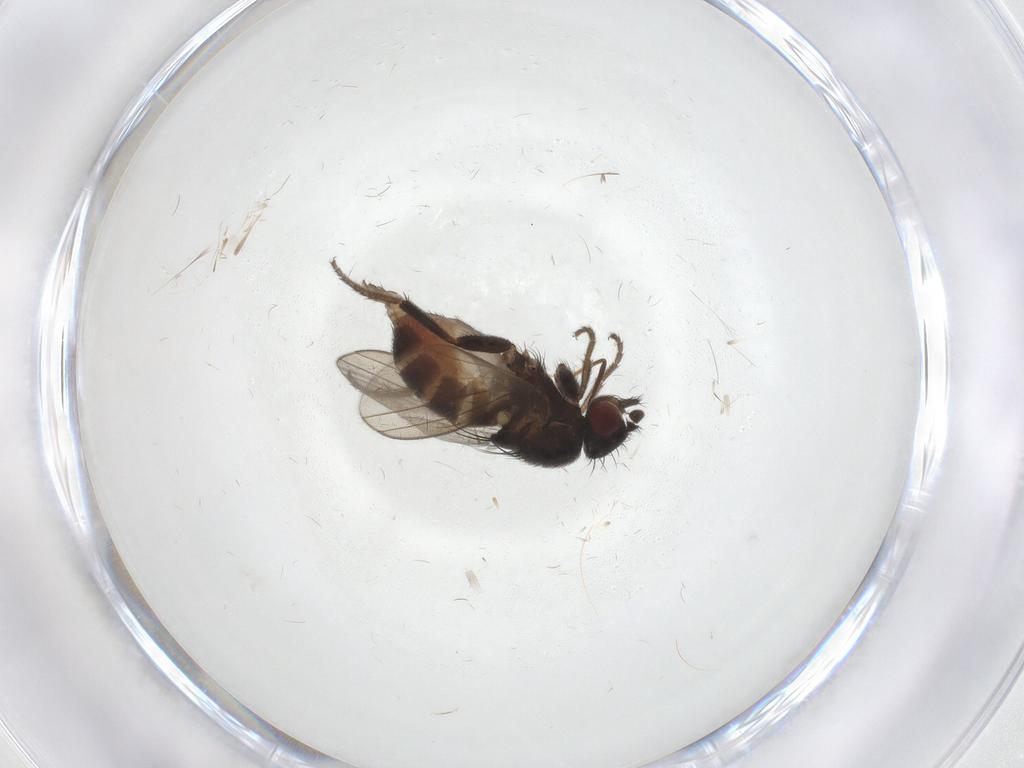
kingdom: Animalia
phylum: Arthropoda
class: Insecta
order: Diptera
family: Milichiidae
